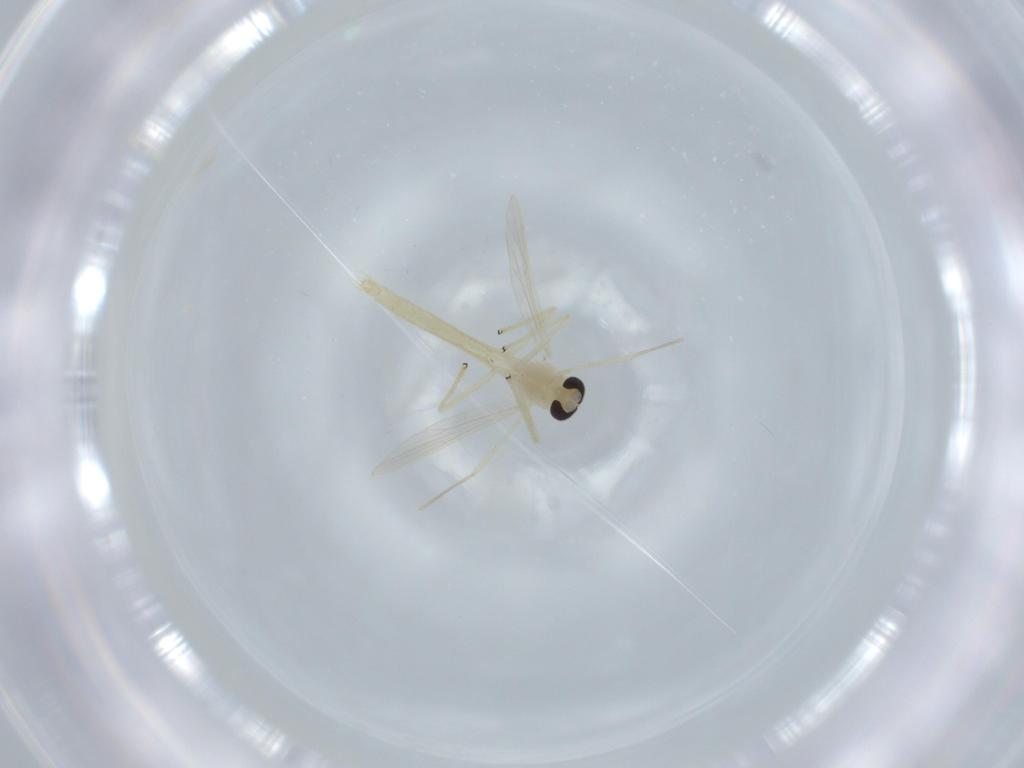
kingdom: Animalia
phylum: Arthropoda
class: Insecta
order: Diptera
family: Chironomidae
